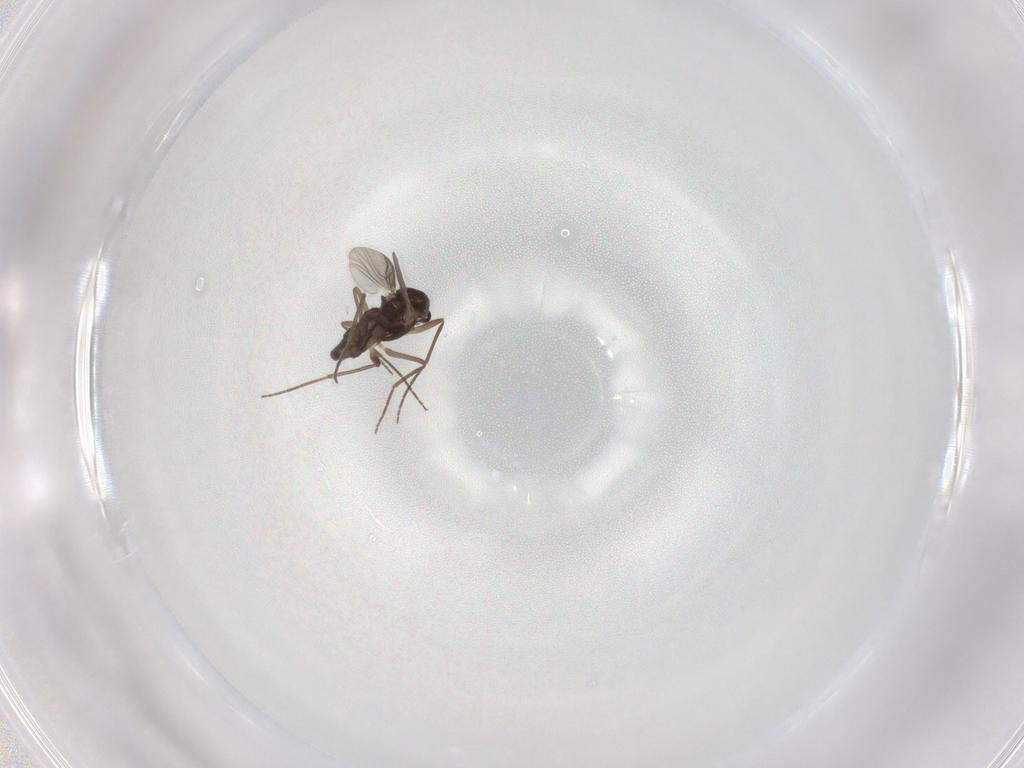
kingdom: Animalia
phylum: Arthropoda
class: Insecta
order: Diptera
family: Chironomidae
